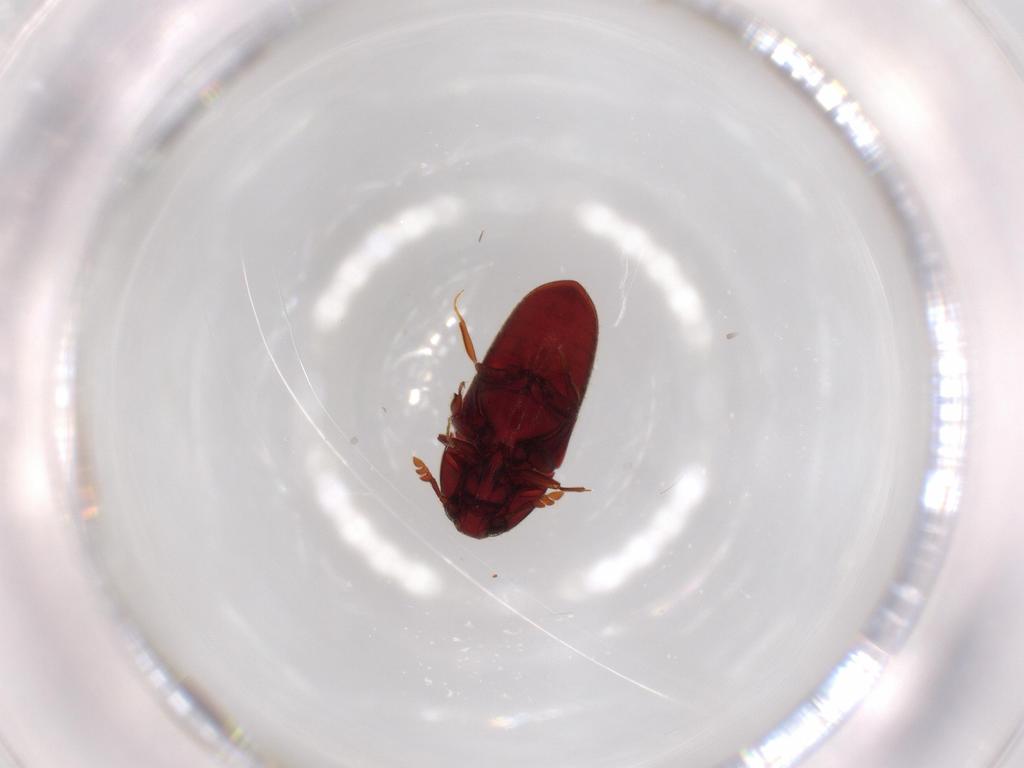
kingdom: Animalia
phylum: Arthropoda
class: Insecta
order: Coleoptera
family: Throscidae
